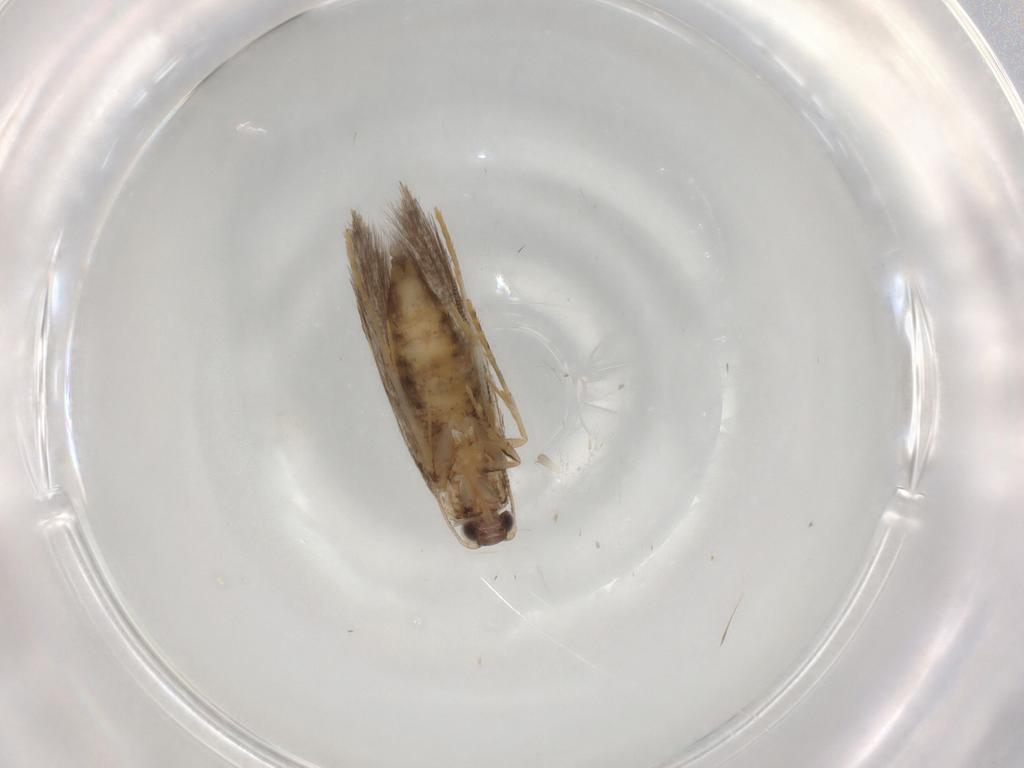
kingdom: Animalia
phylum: Arthropoda
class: Insecta
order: Lepidoptera
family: Tineidae
